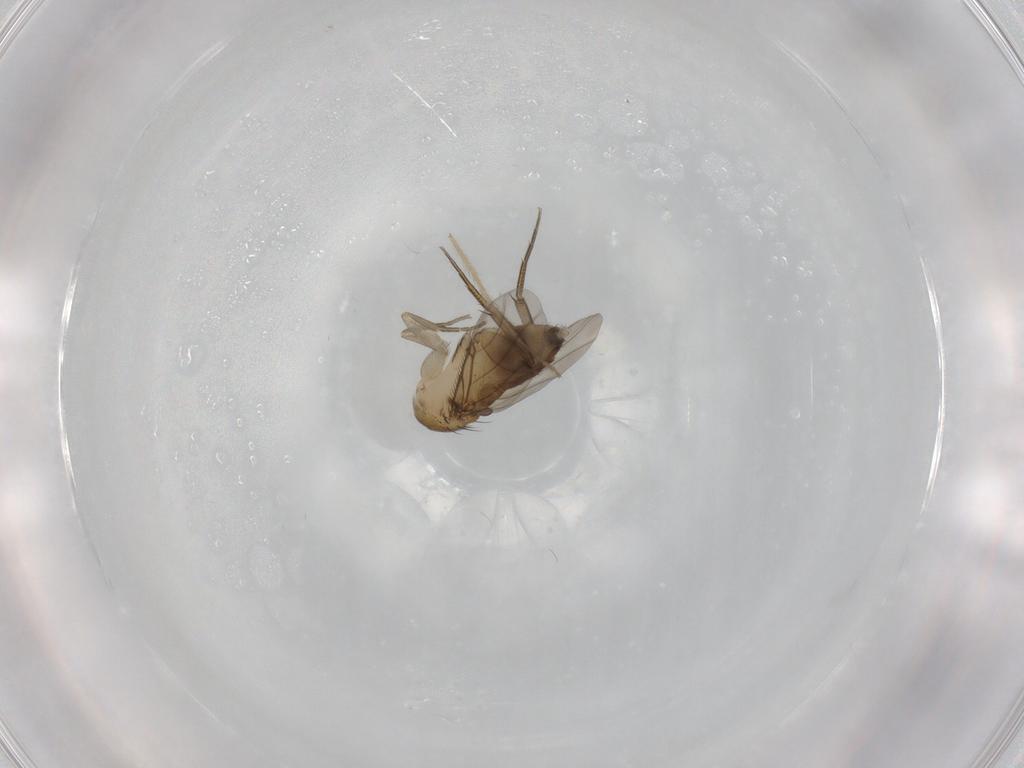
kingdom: Animalia
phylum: Arthropoda
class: Insecta
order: Diptera
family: Phoridae
